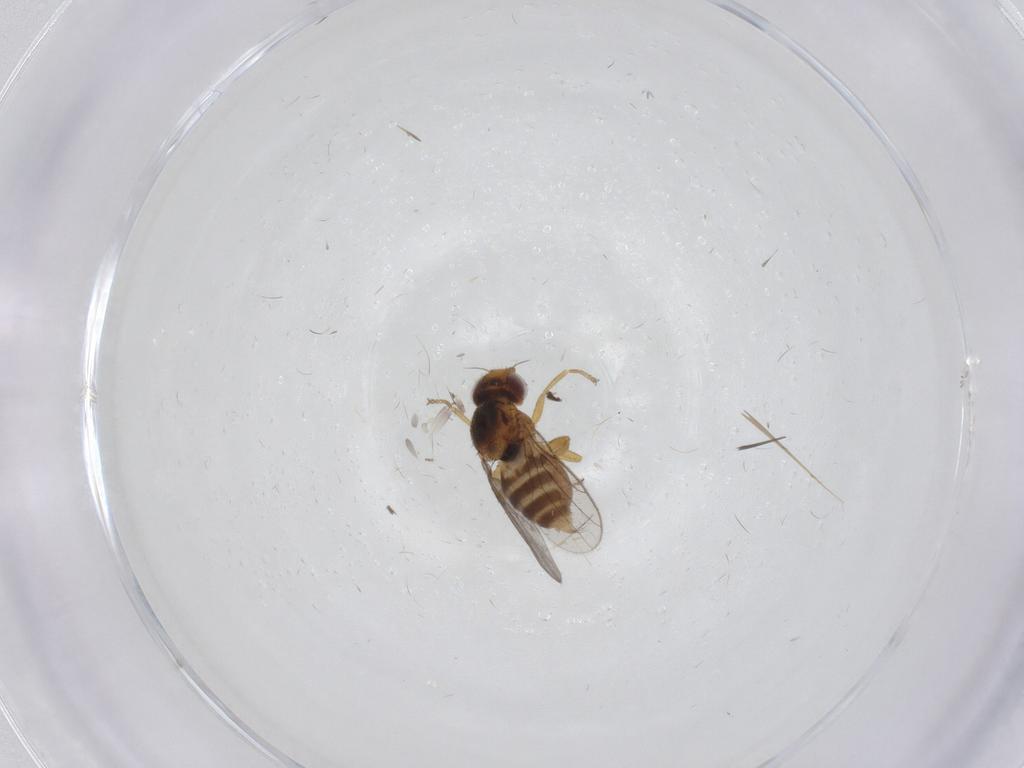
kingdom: Animalia
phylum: Arthropoda
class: Insecta
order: Diptera
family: Chloropidae
